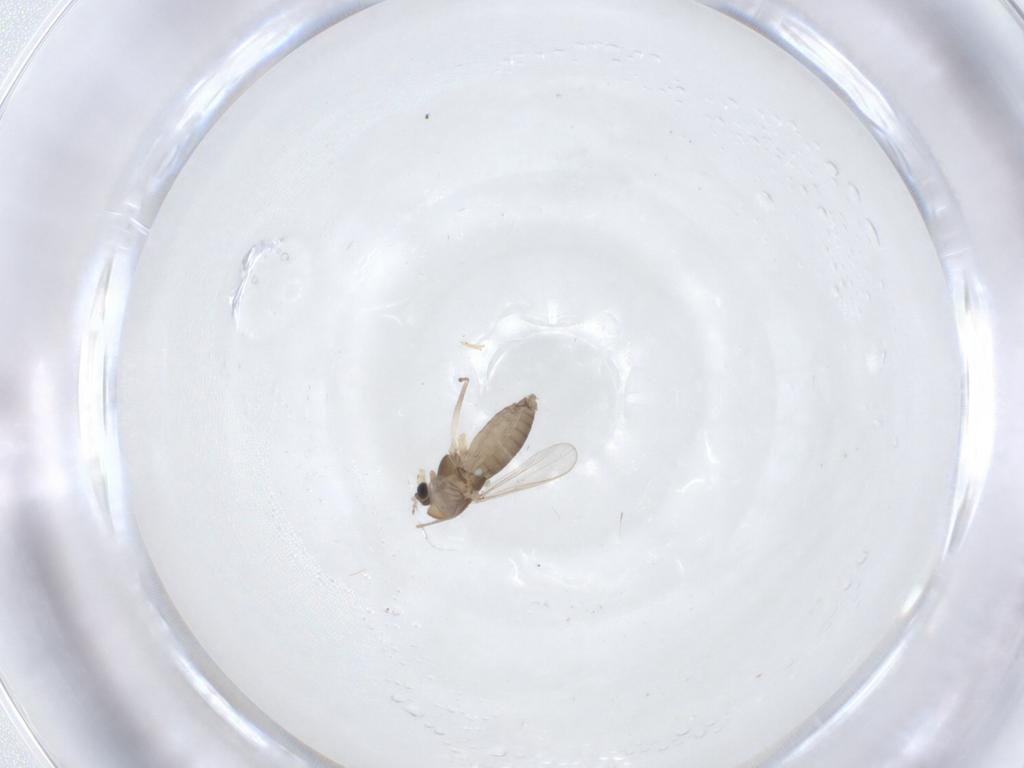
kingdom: Animalia
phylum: Arthropoda
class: Insecta
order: Diptera
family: Chironomidae
